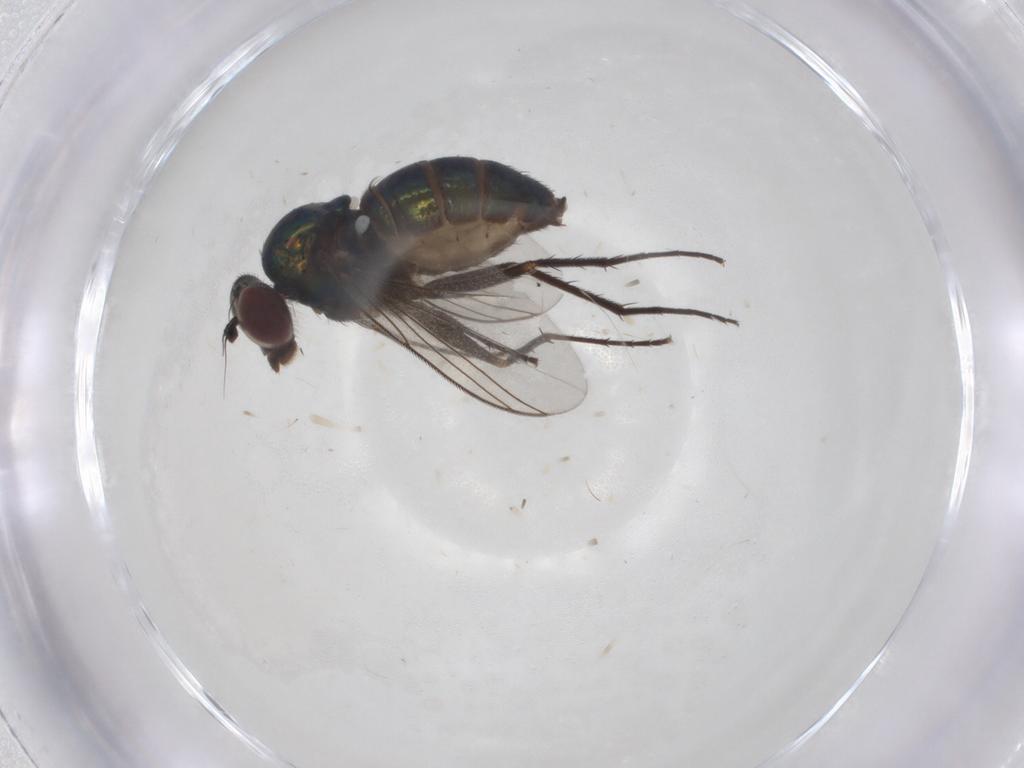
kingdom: Animalia
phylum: Arthropoda
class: Insecta
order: Diptera
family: Dolichopodidae
